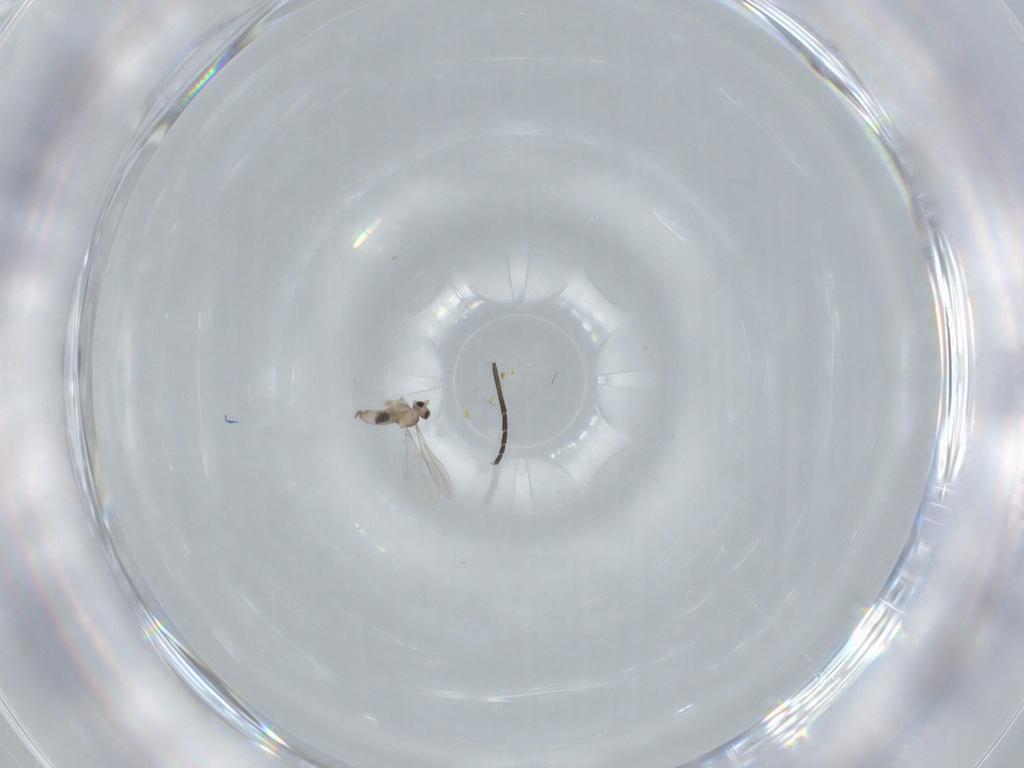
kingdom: Animalia
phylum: Arthropoda
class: Insecta
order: Diptera
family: Cecidomyiidae
